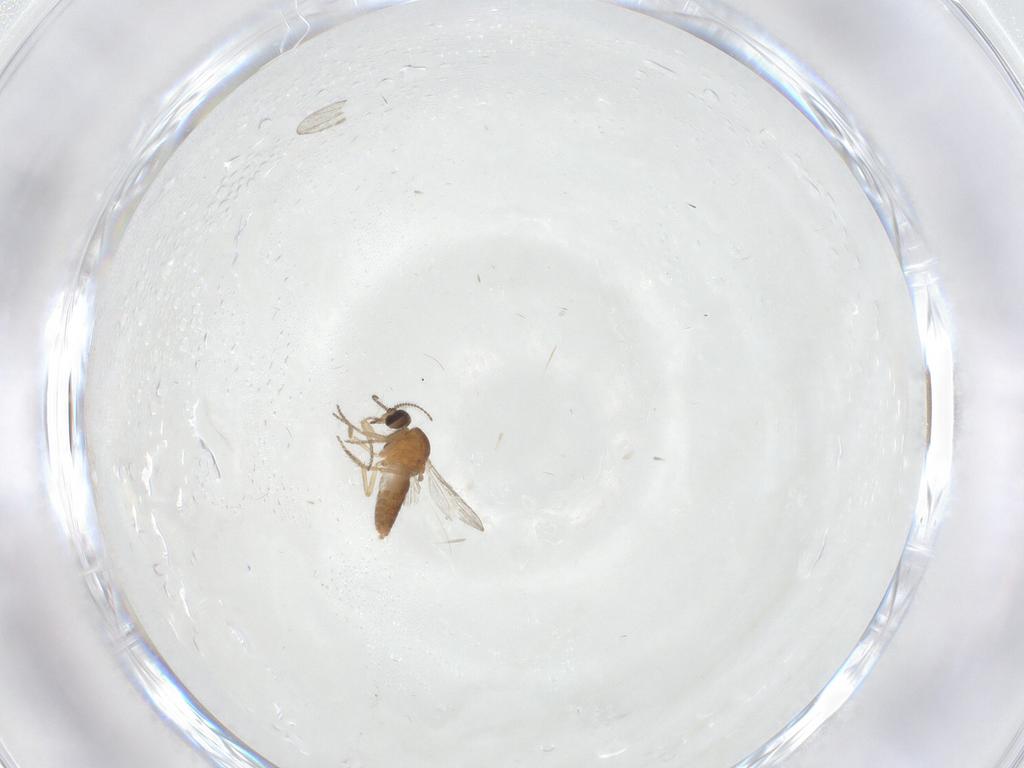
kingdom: Animalia
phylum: Arthropoda
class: Insecta
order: Diptera
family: Ceratopogonidae
